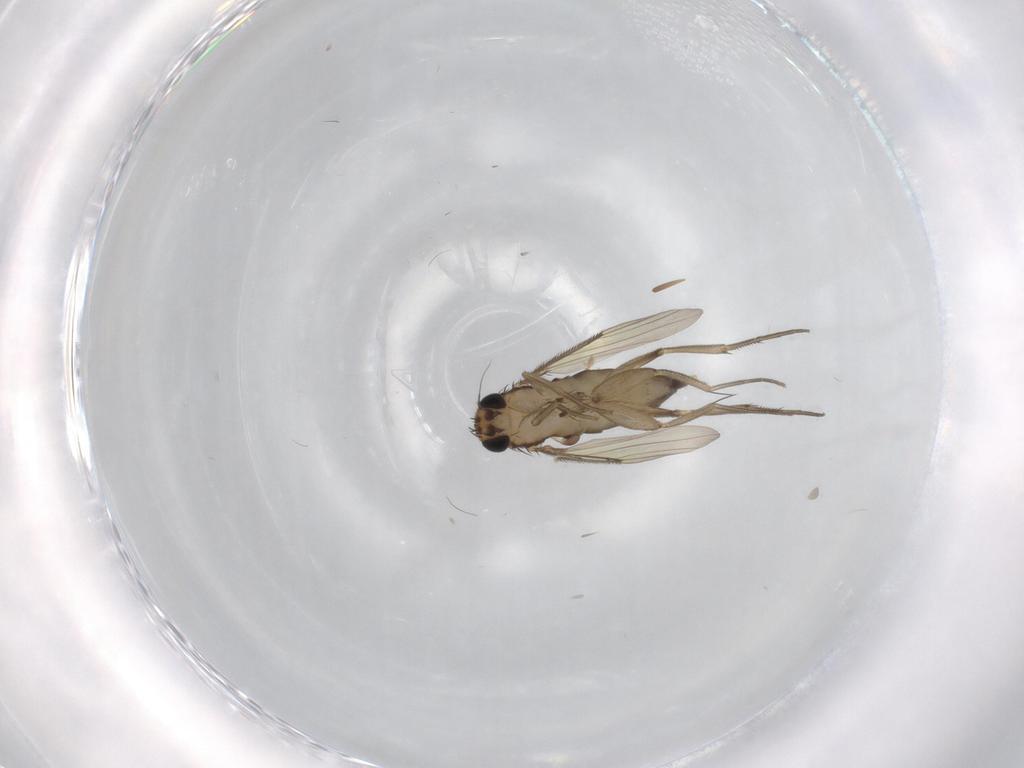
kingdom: Animalia
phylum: Arthropoda
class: Insecta
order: Diptera
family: Phoridae
